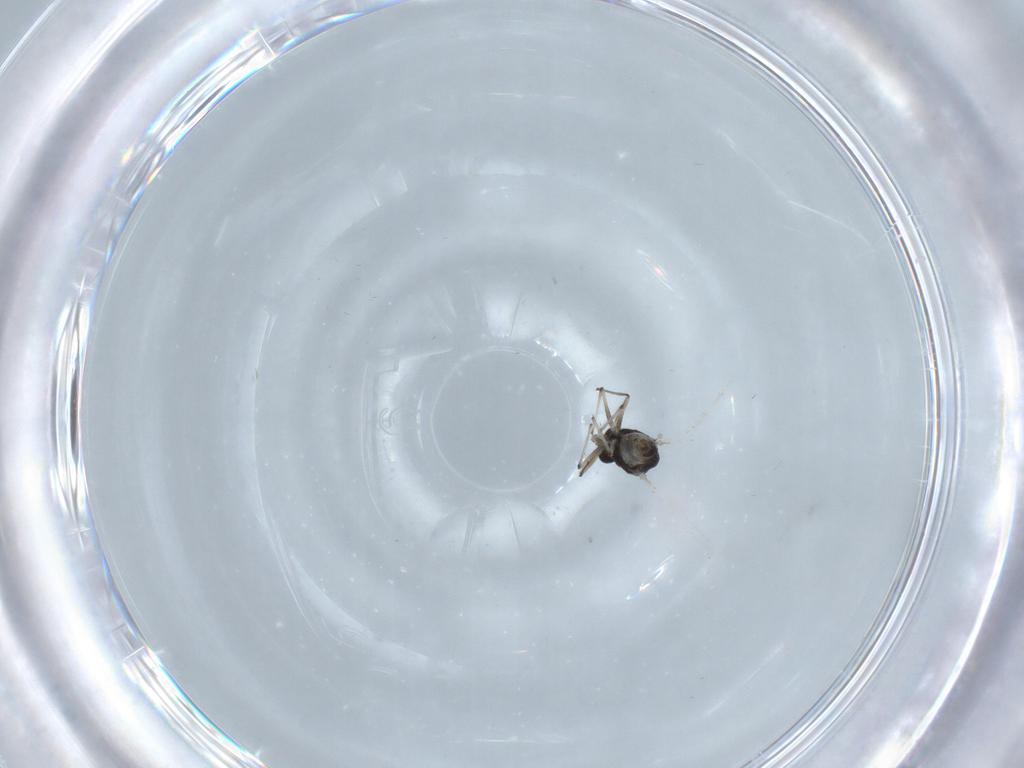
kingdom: Animalia
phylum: Arthropoda
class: Insecta
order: Diptera
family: Chironomidae
